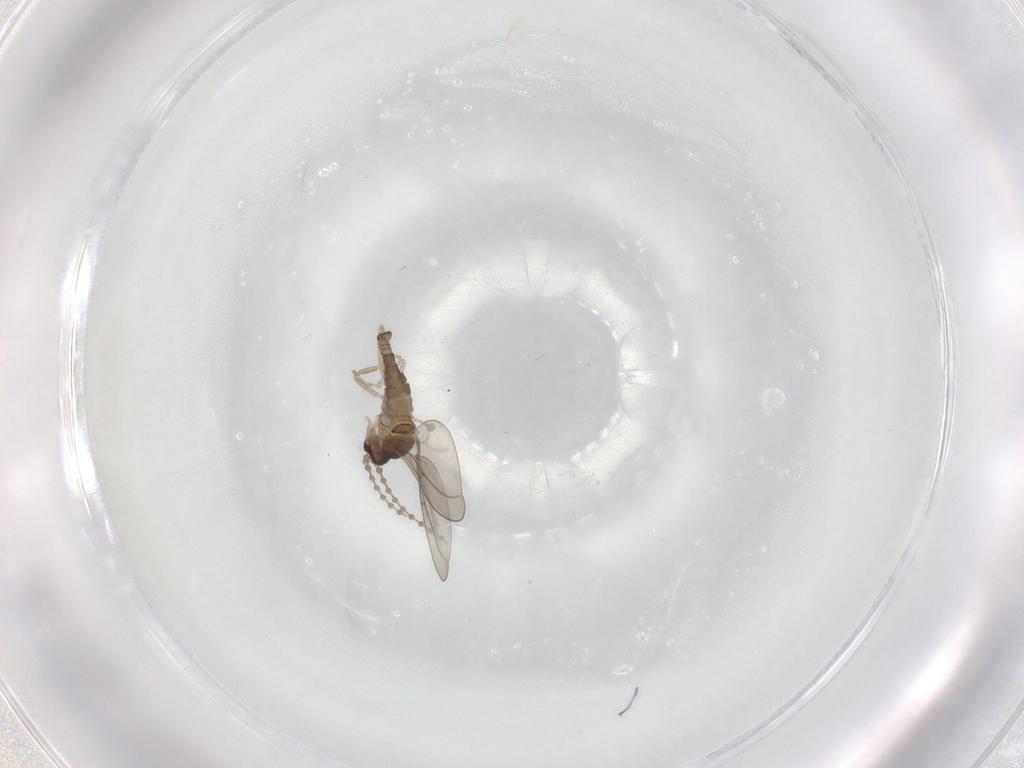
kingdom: Animalia
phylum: Arthropoda
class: Insecta
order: Diptera
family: Cecidomyiidae
